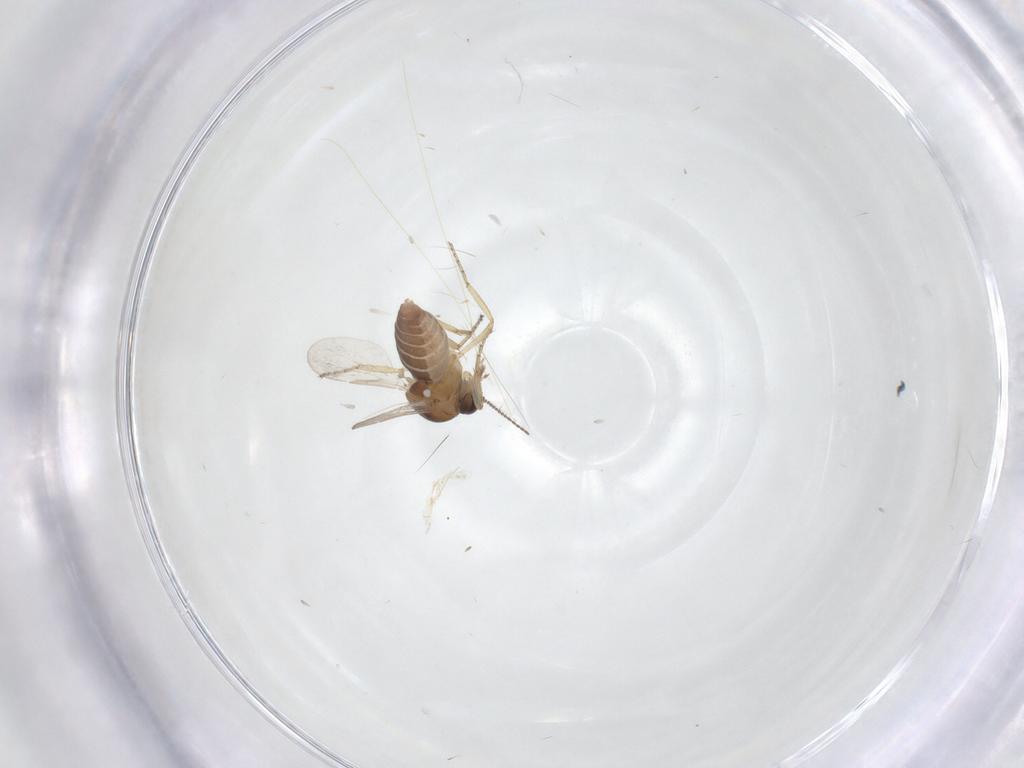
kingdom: Animalia
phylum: Arthropoda
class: Insecta
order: Diptera
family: Ceratopogonidae
